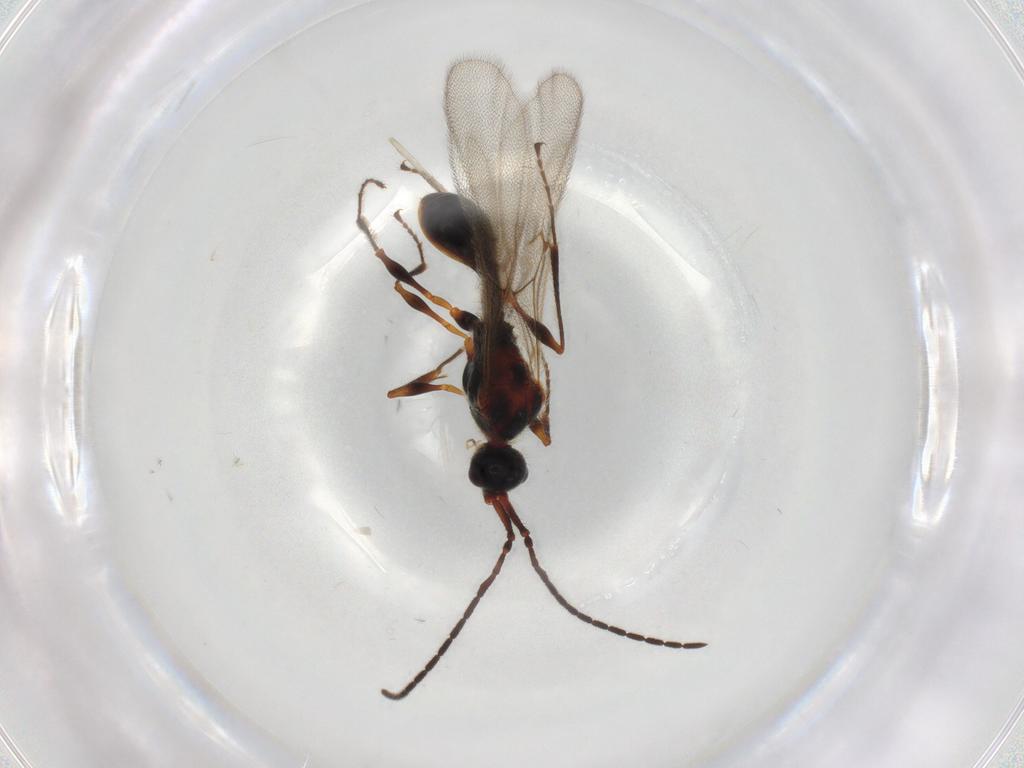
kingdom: Animalia
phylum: Arthropoda
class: Insecta
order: Hymenoptera
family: Diapriidae
